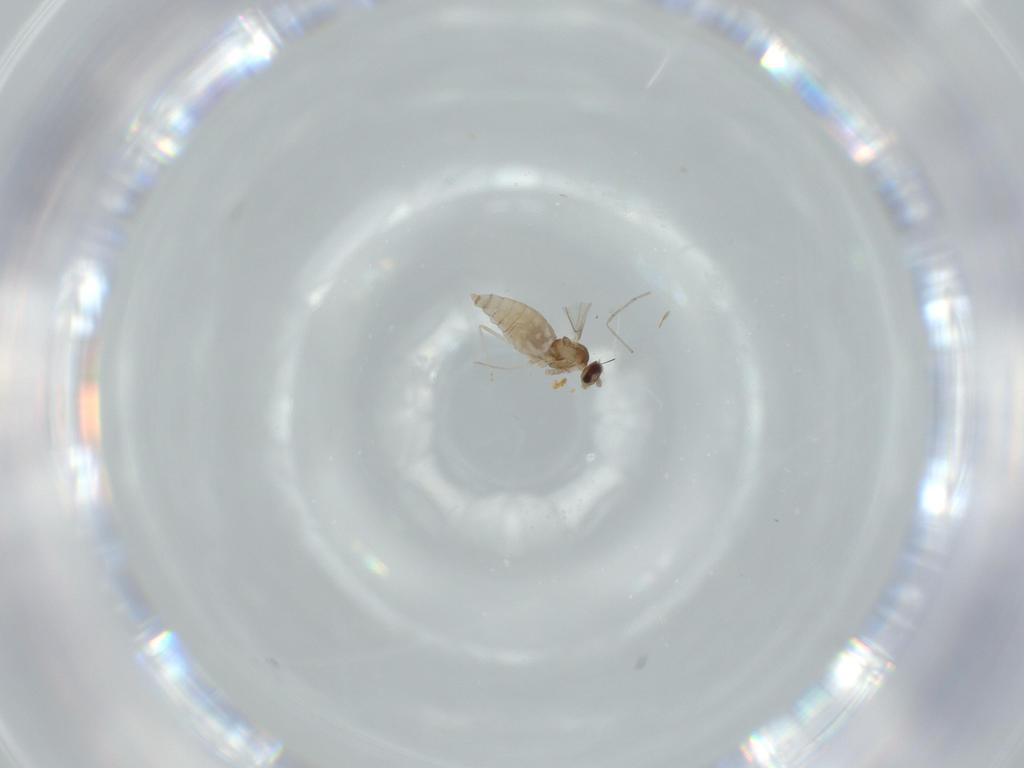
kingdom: Animalia
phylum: Arthropoda
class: Insecta
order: Diptera
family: Cecidomyiidae
